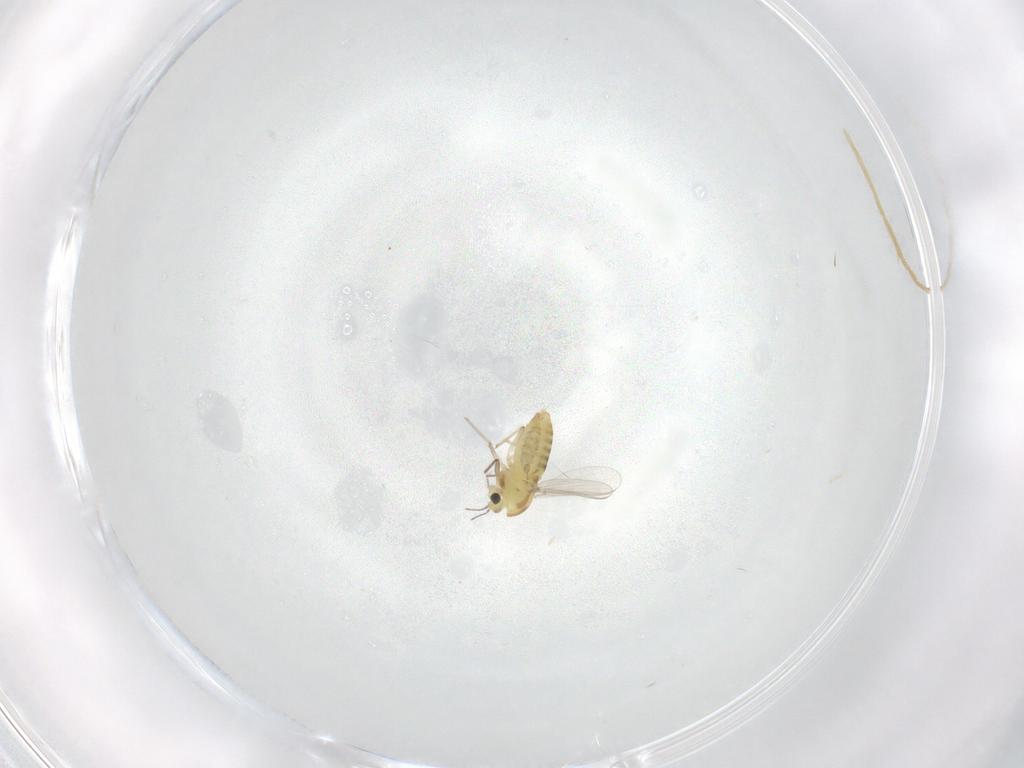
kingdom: Animalia
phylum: Arthropoda
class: Insecta
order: Diptera
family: Chironomidae
